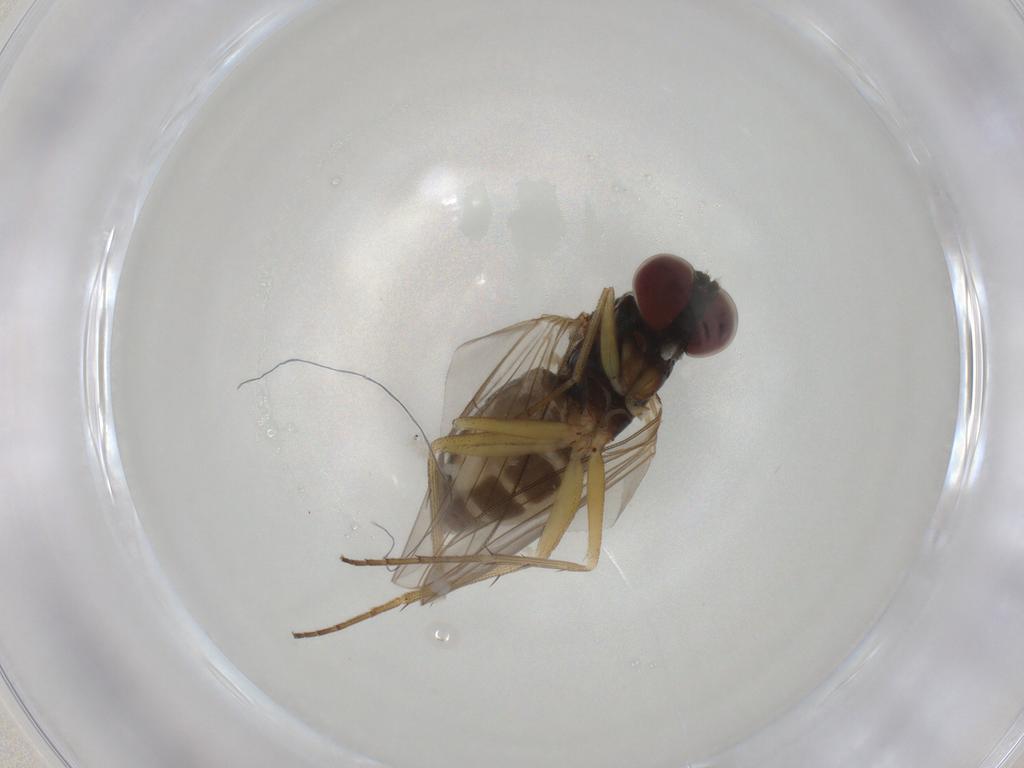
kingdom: Animalia
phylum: Arthropoda
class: Insecta
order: Diptera
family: Dolichopodidae
